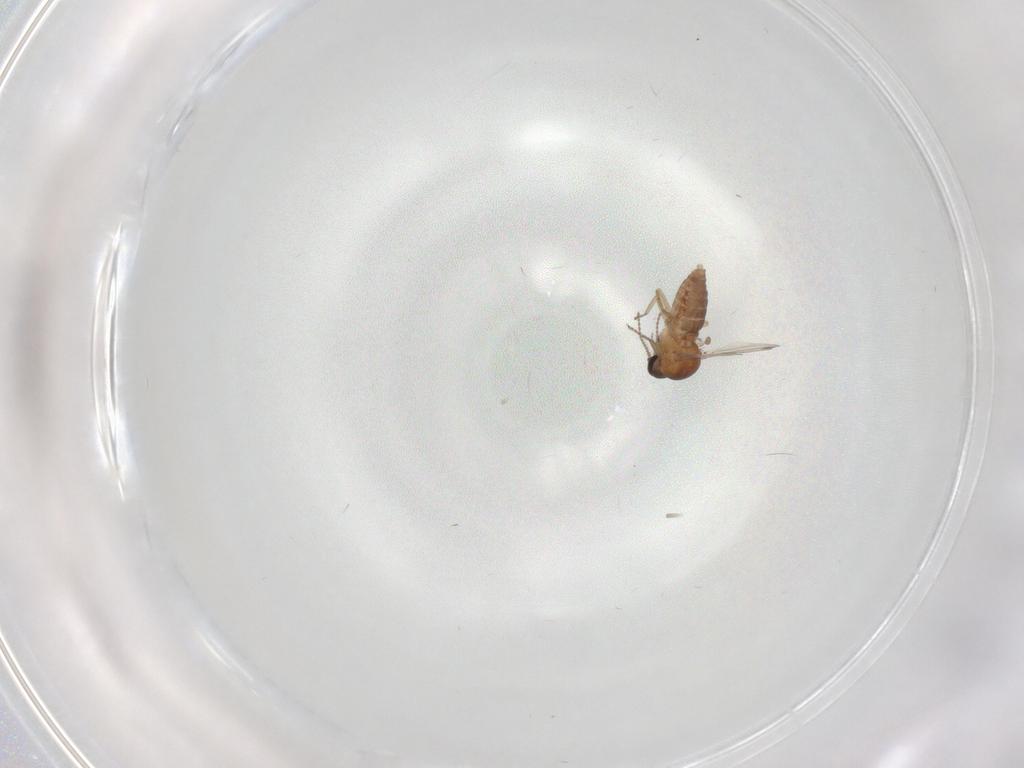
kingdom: Animalia
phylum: Arthropoda
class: Insecta
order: Diptera
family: Ceratopogonidae
